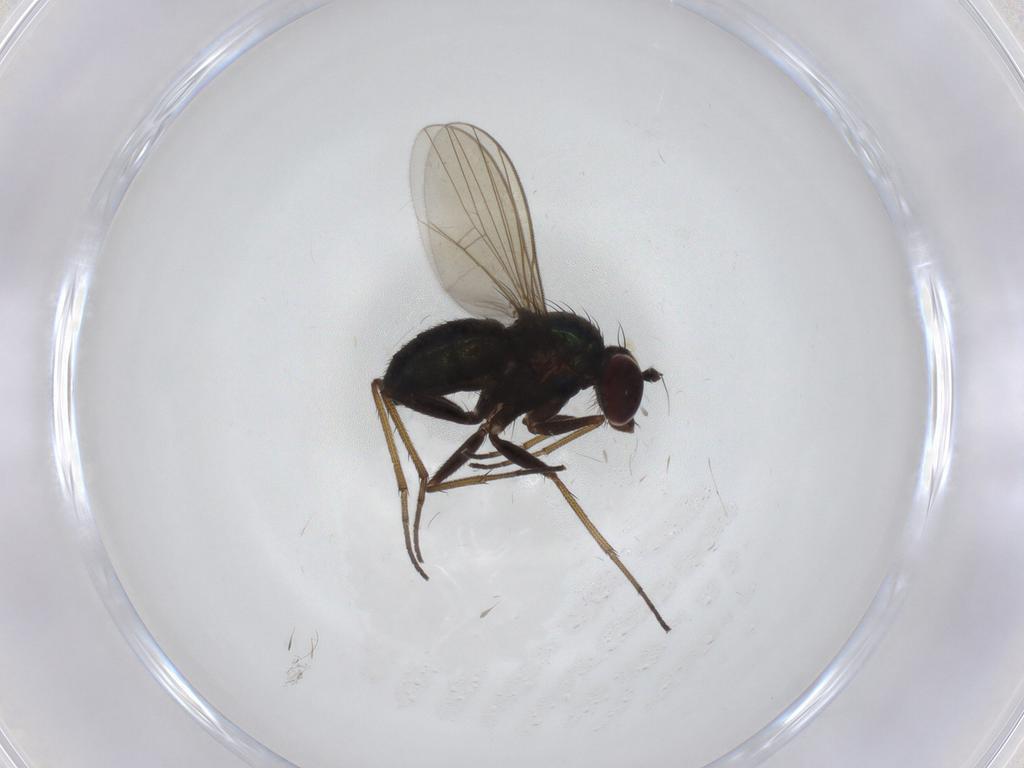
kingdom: Animalia
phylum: Arthropoda
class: Insecta
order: Diptera
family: Dolichopodidae
